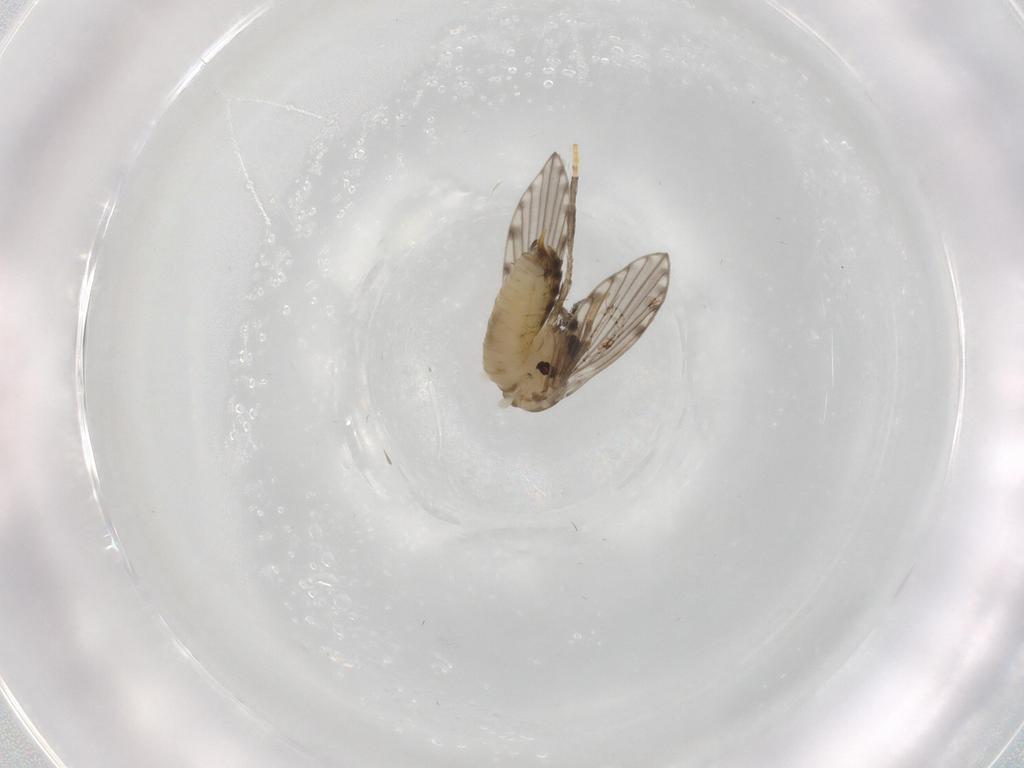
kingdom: Animalia
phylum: Arthropoda
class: Insecta
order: Diptera
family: Psychodidae
